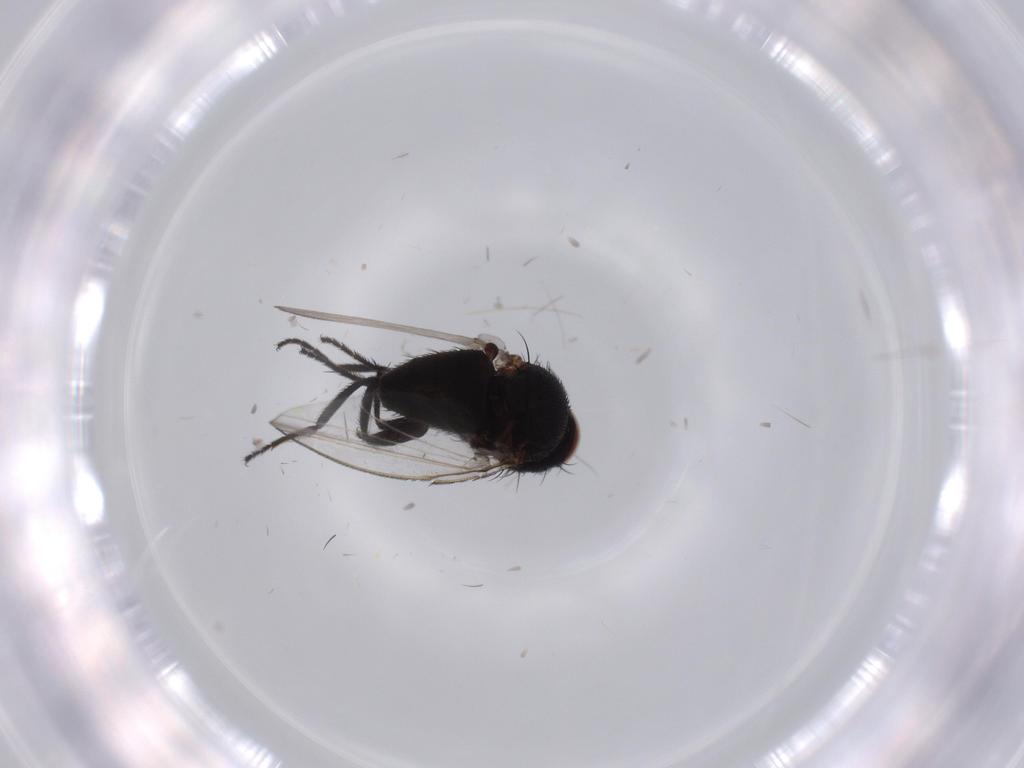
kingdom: Animalia
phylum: Arthropoda
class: Insecta
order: Diptera
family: Milichiidae
